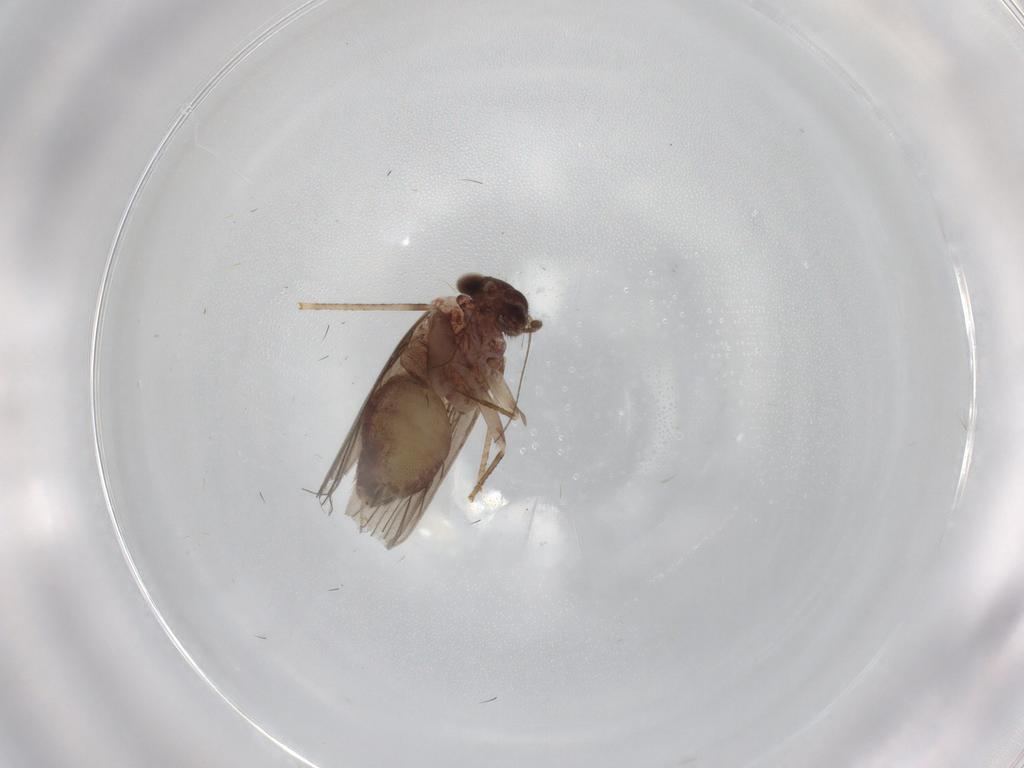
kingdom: Animalia
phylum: Arthropoda
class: Insecta
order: Psocodea
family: Lepidopsocidae
